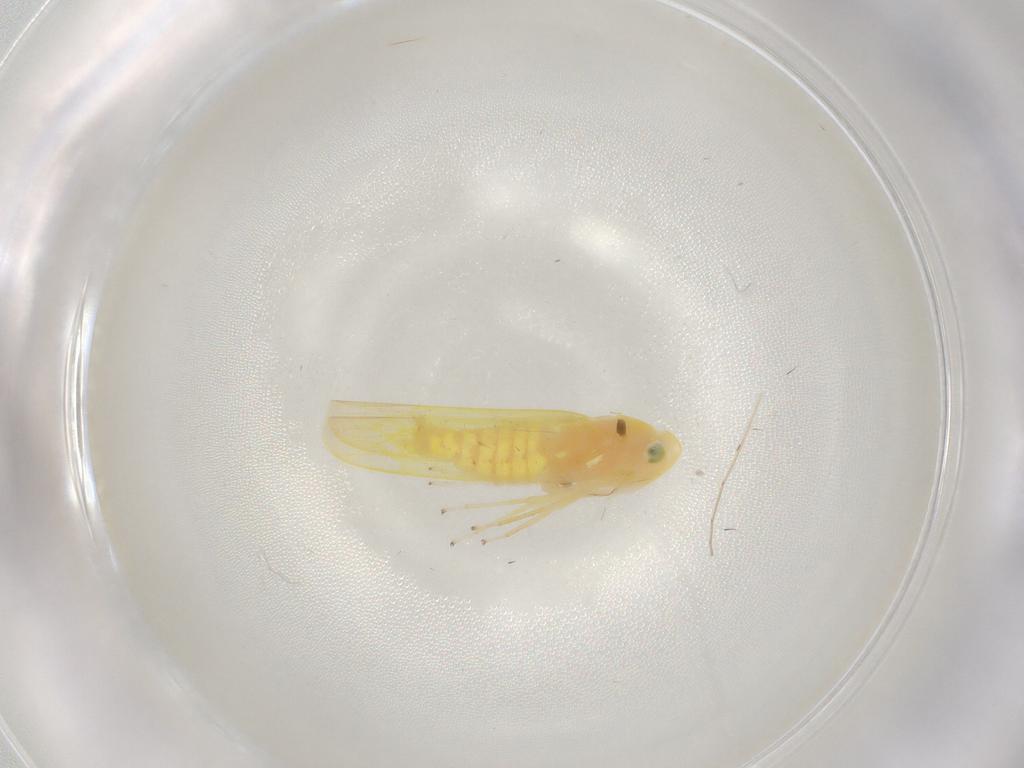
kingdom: Animalia
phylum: Arthropoda
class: Insecta
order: Hemiptera
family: Cicadellidae
